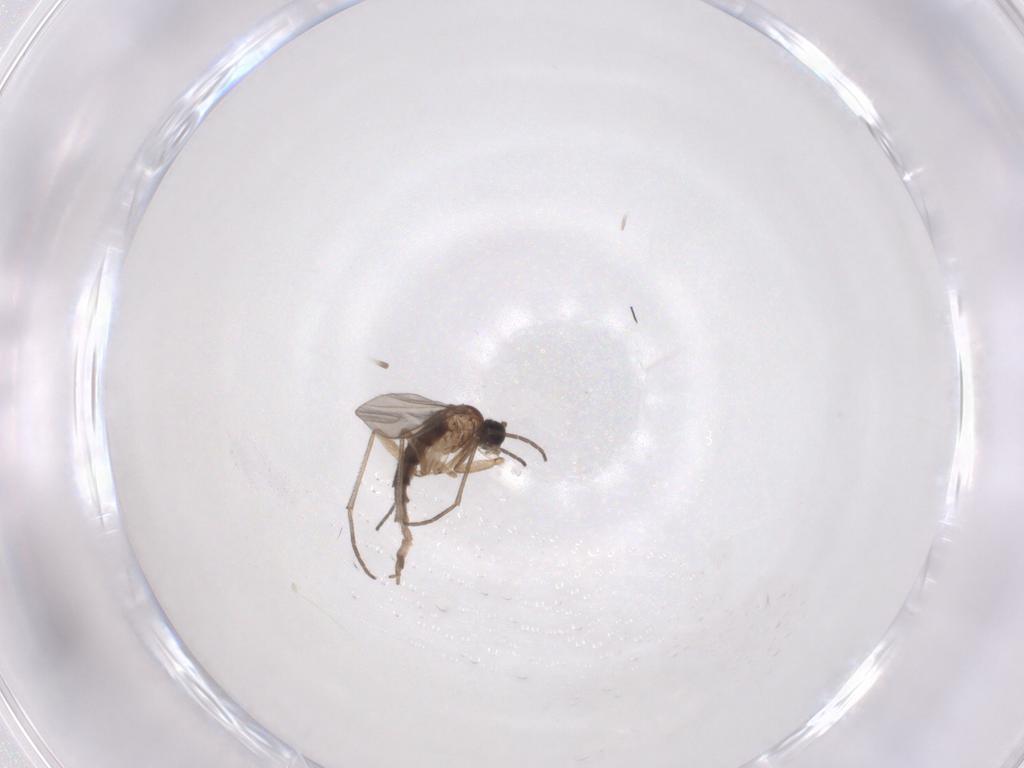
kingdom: Animalia
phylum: Arthropoda
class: Insecta
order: Diptera
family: Sciaridae
